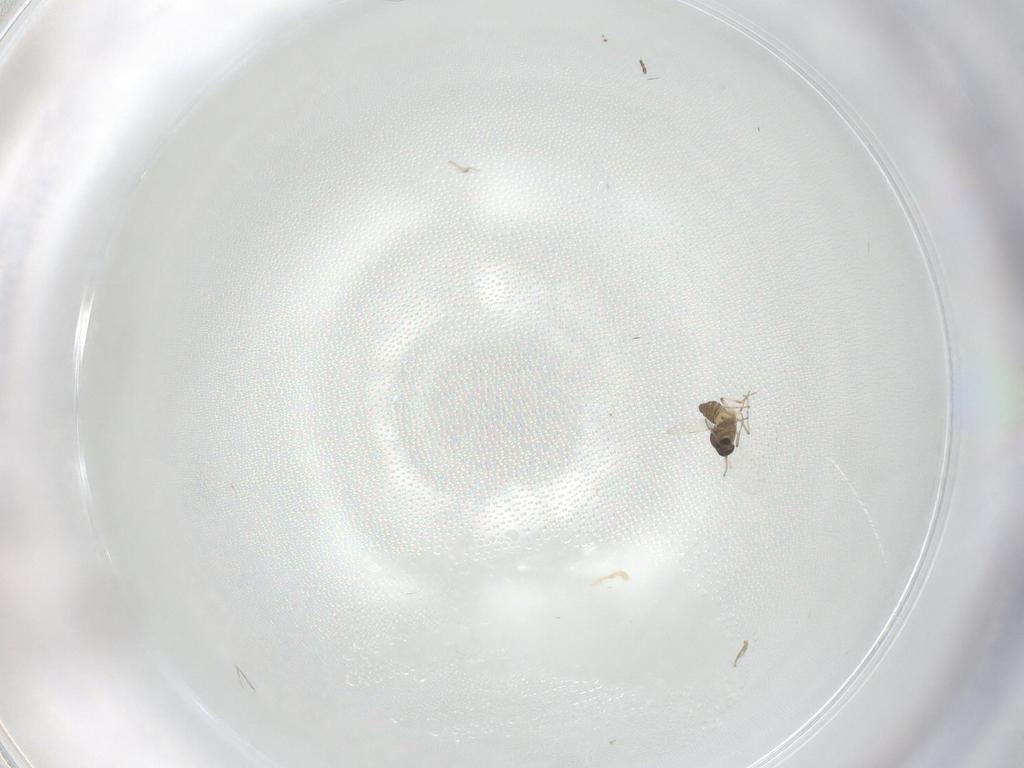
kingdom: Animalia
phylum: Arthropoda
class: Insecta
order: Diptera
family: Ceratopogonidae
